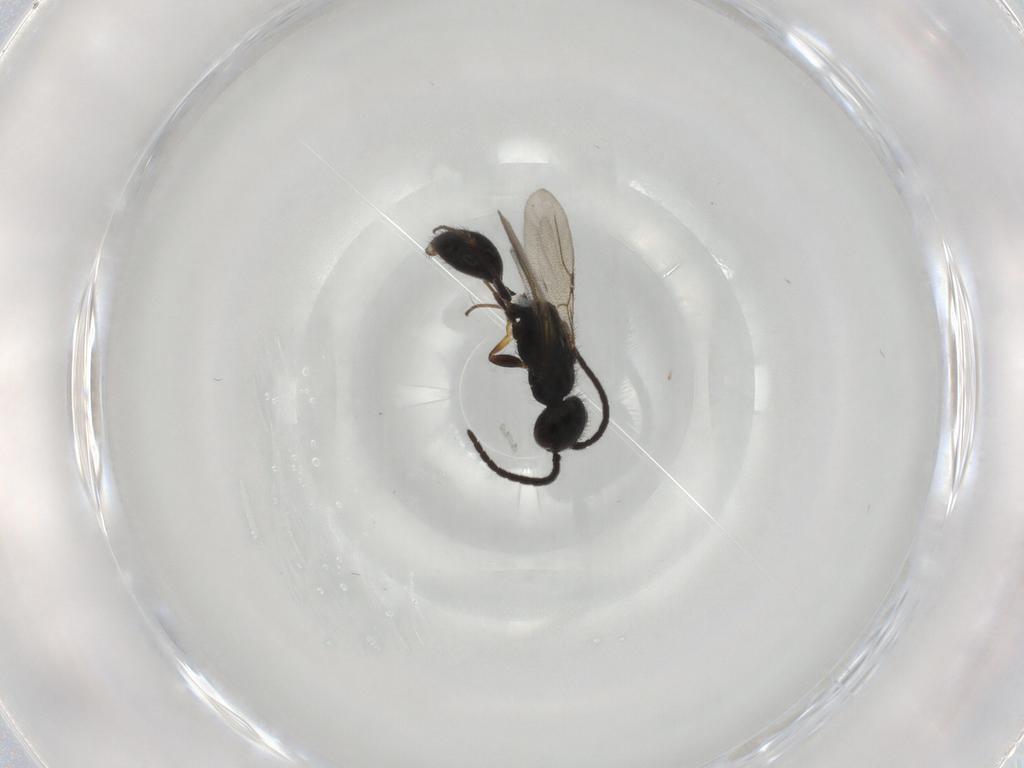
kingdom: Animalia
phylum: Arthropoda
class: Insecta
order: Hymenoptera
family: Bethylidae
